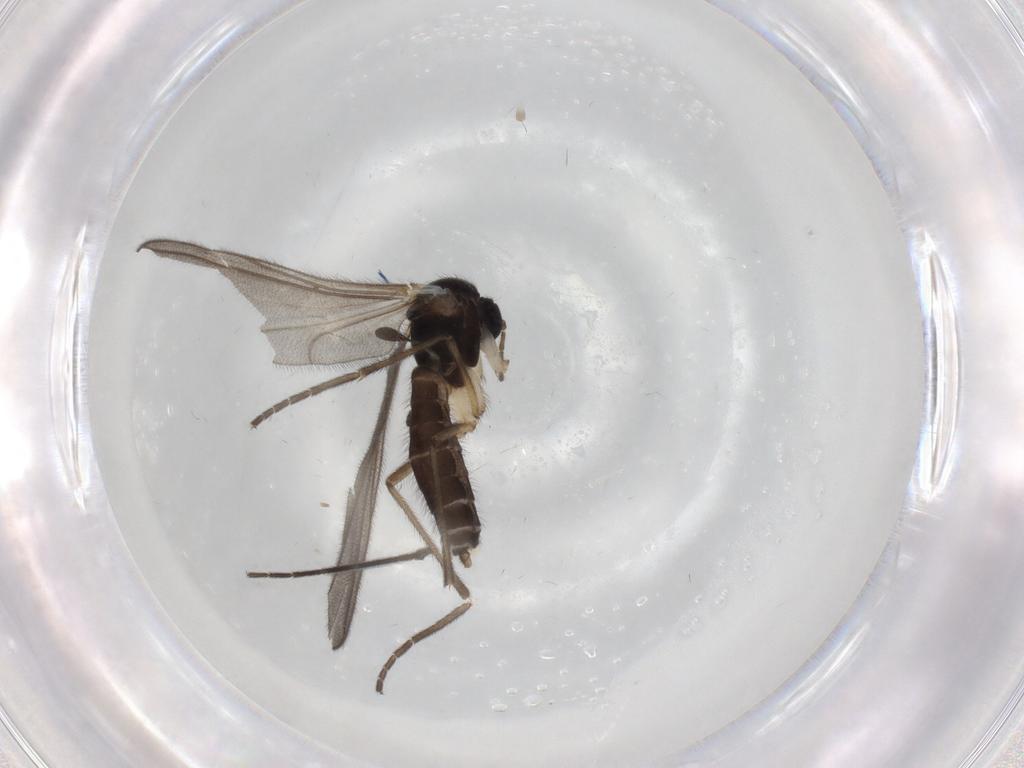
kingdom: Animalia
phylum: Arthropoda
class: Insecta
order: Diptera
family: Mycetophilidae
